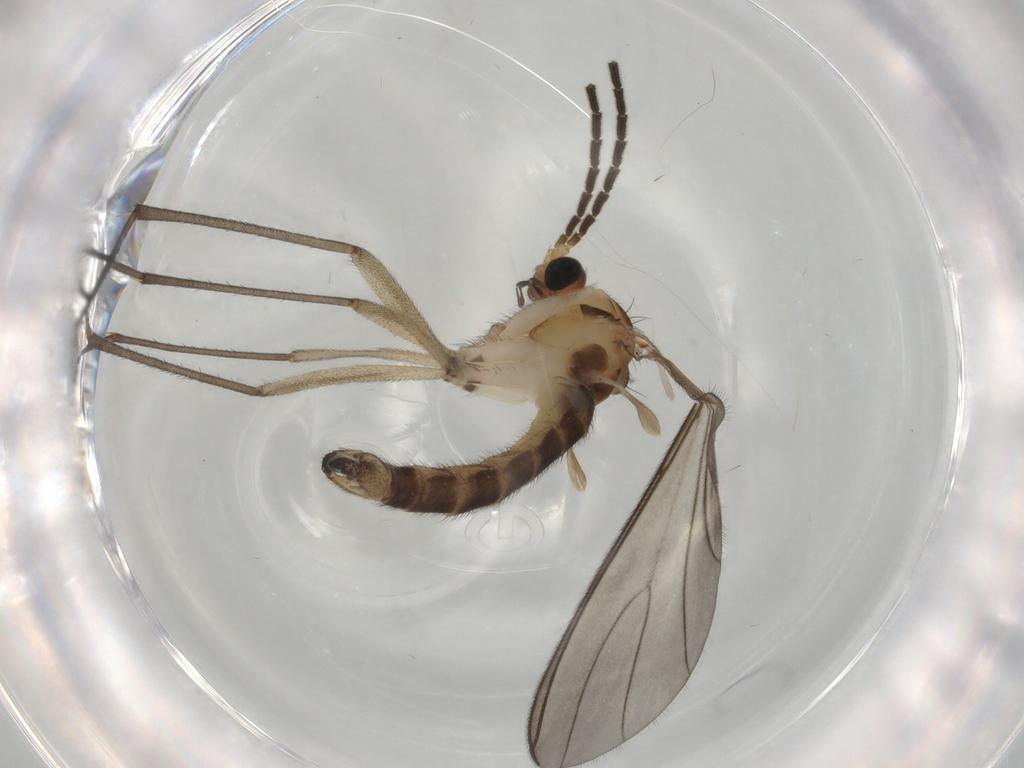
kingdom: Animalia
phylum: Arthropoda
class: Insecta
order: Diptera
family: Sciaridae
